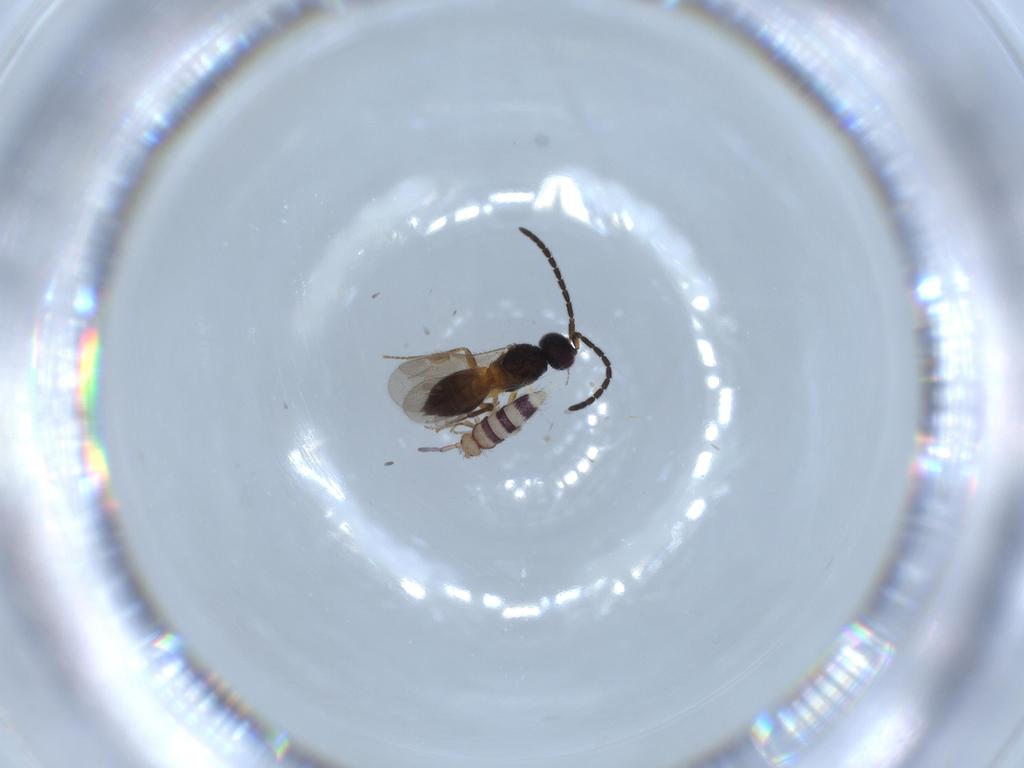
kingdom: Animalia
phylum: Arthropoda
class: Collembola
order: Entomobryomorpha
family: Entomobryidae
